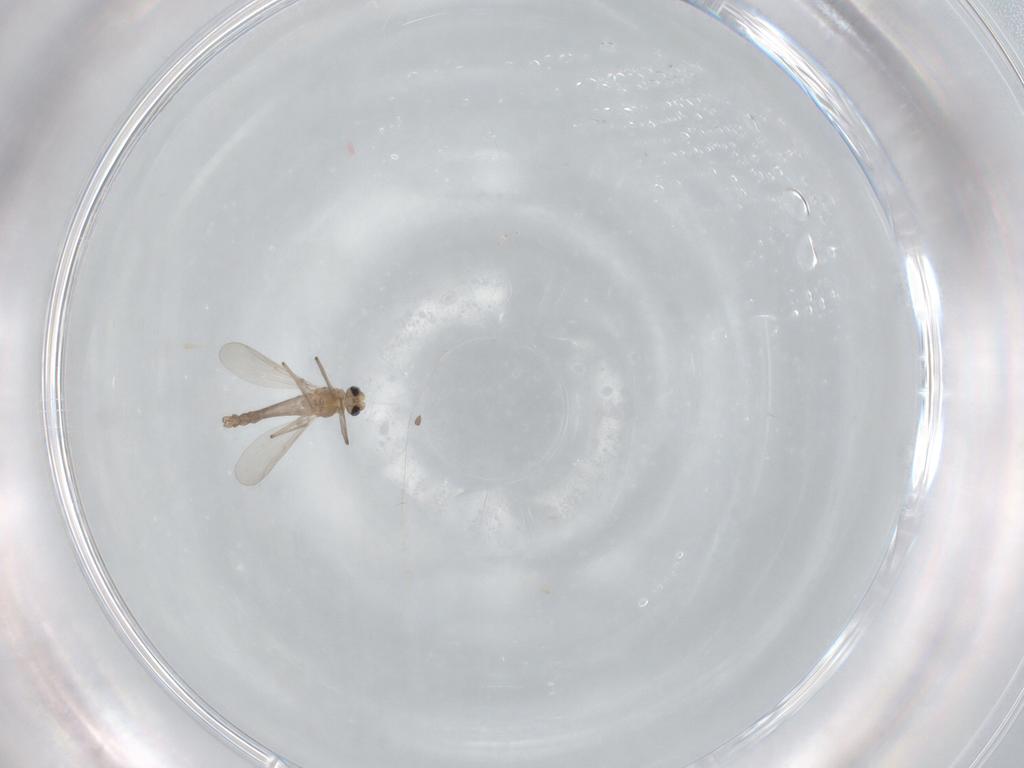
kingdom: Animalia
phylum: Arthropoda
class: Insecta
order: Diptera
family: Chironomidae
